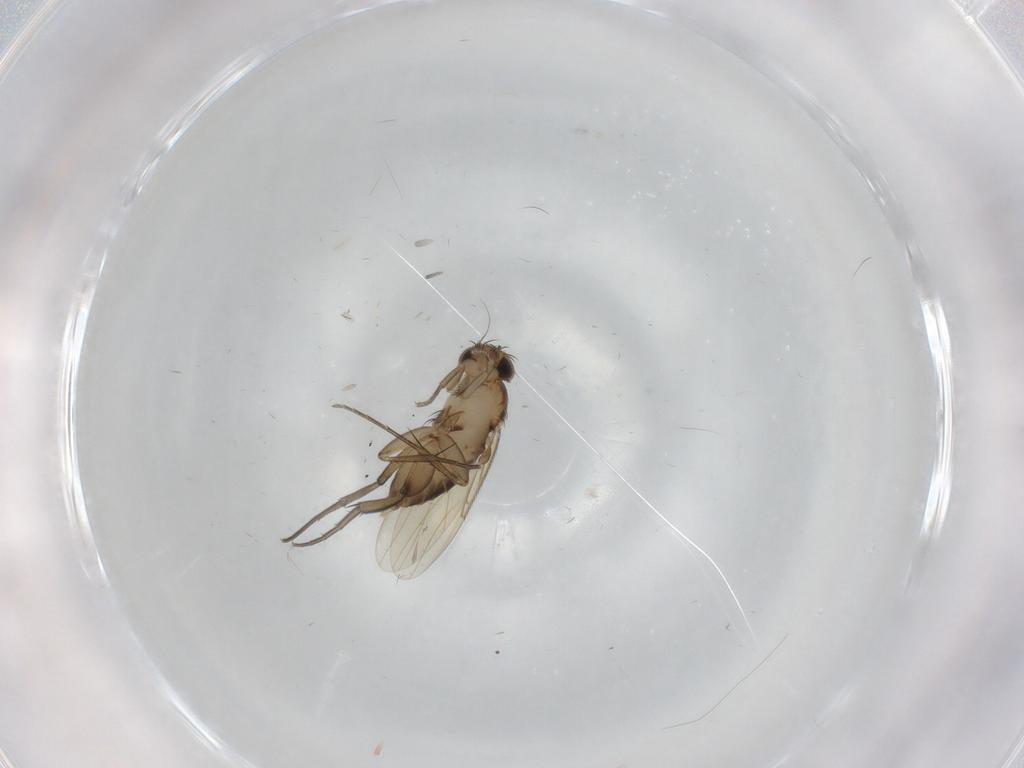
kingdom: Animalia
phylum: Arthropoda
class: Insecta
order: Diptera
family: Phoridae
